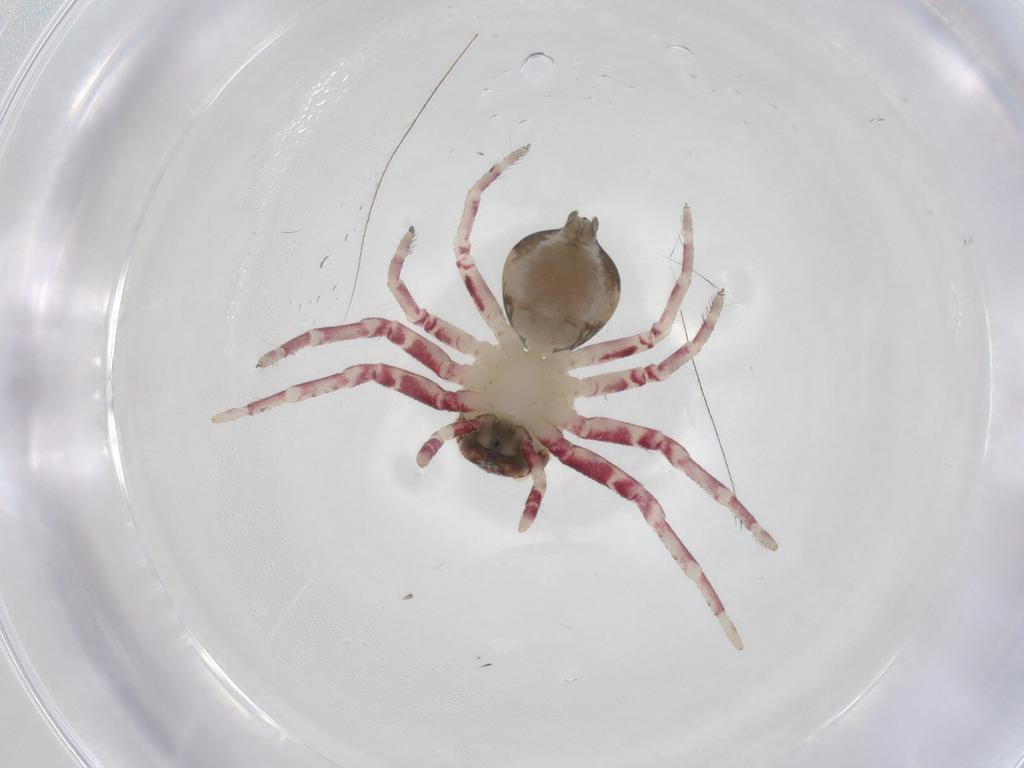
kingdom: Animalia
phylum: Arthropoda
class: Arachnida
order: Araneae
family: Thomisidae
